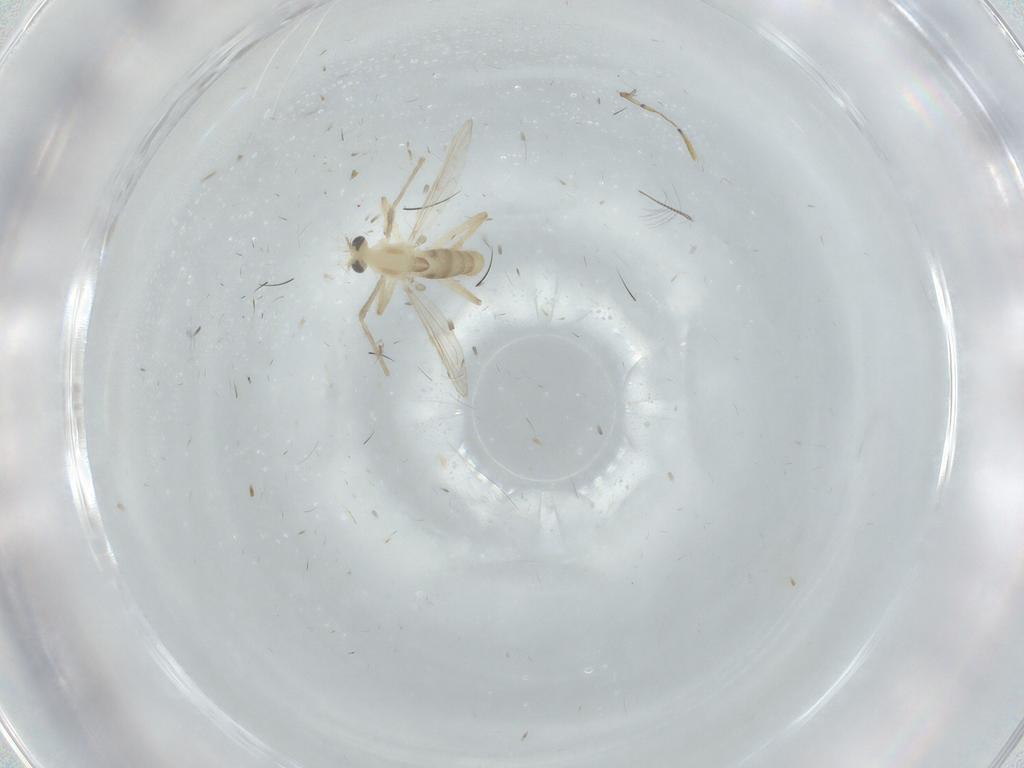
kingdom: Animalia
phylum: Arthropoda
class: Insecta
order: Diptera
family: Chironomidae
